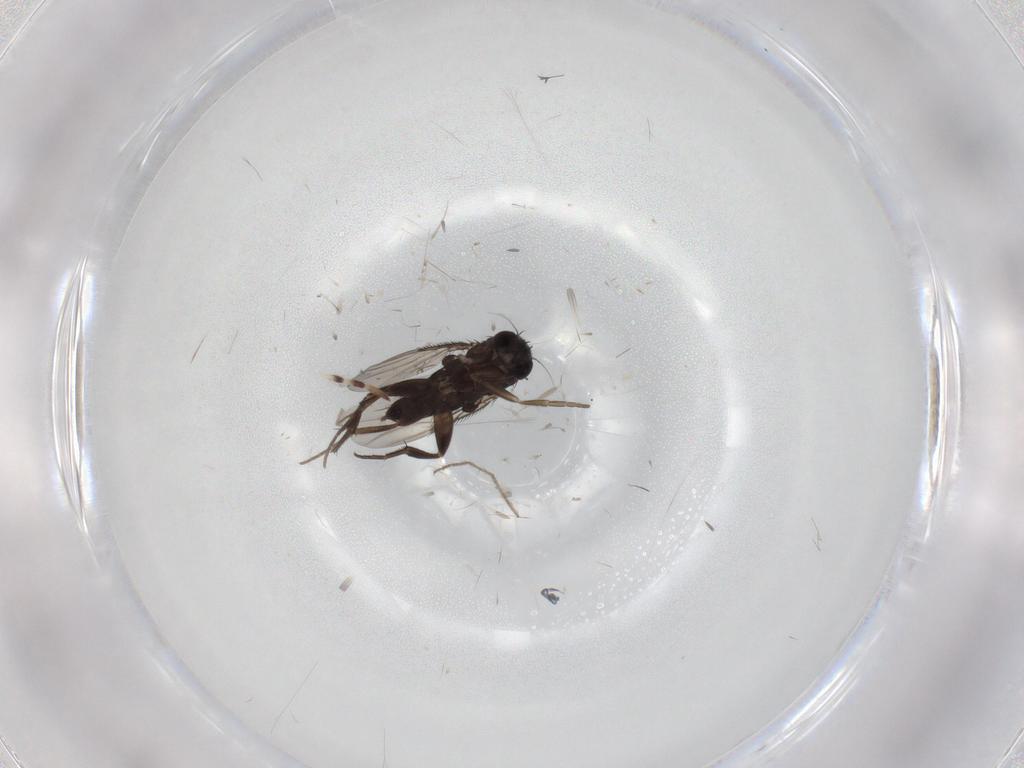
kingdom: Animalia
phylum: Arthropoda
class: Insecta
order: Diptera
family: Chironomidae
